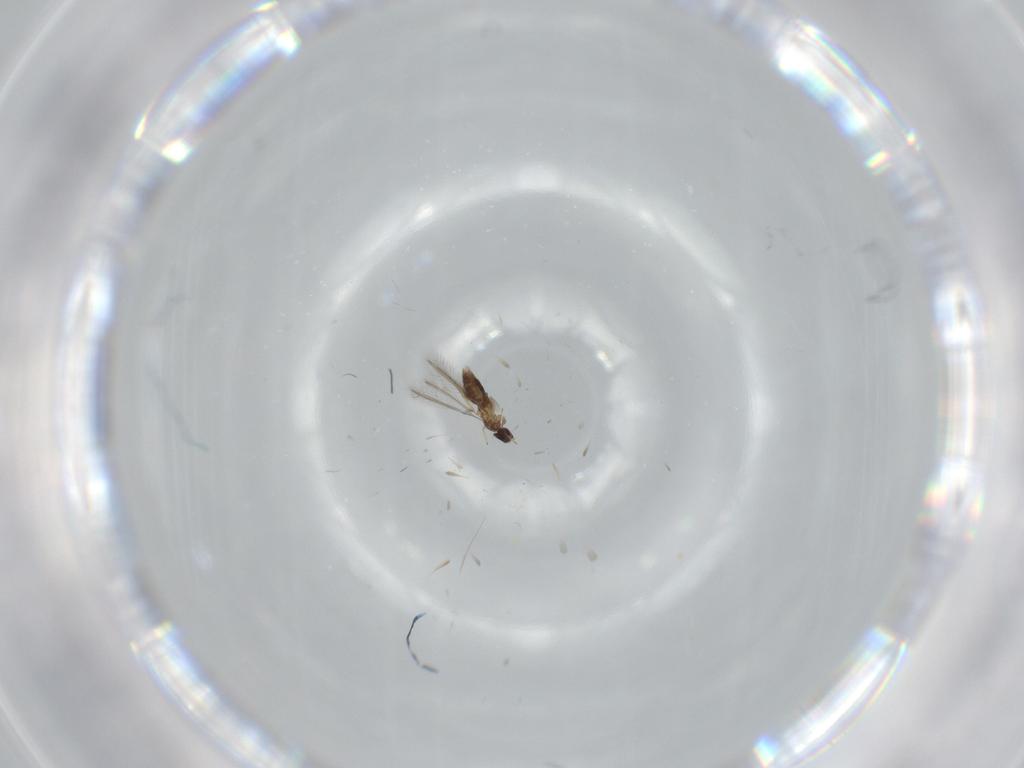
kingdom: Animalia
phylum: Arthropoda
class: Insecta
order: Hymenoptera
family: Mymaridae
